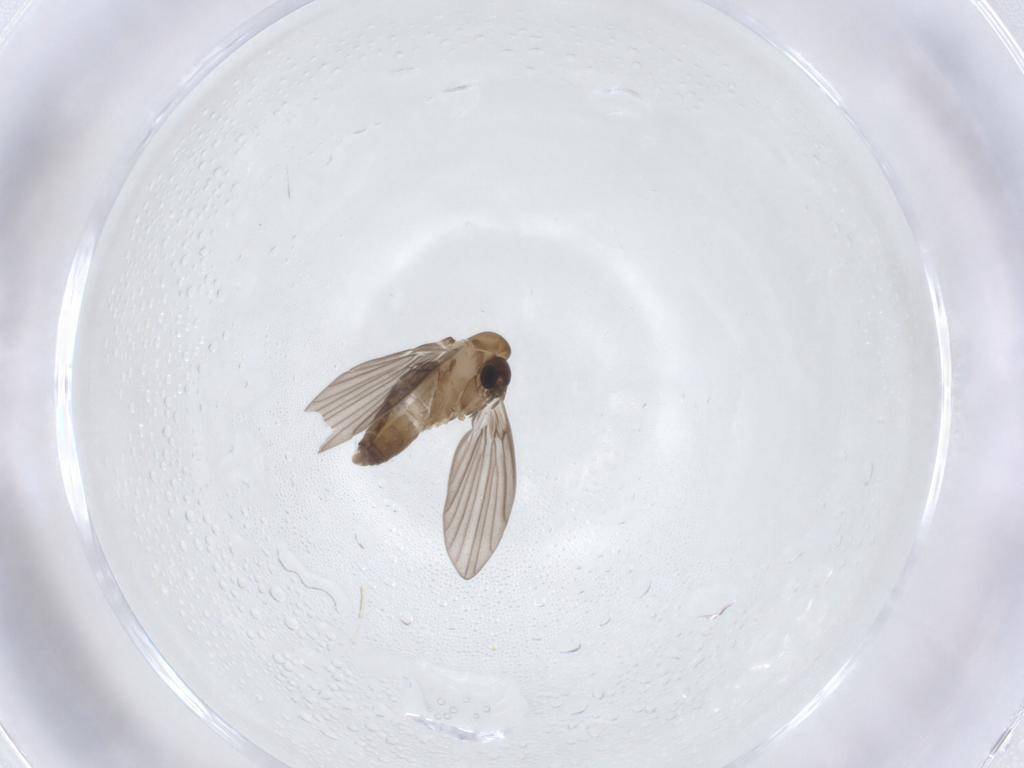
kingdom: Animalia
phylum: Arthropoda
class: Insecta
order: Diptera
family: Psychodidae
